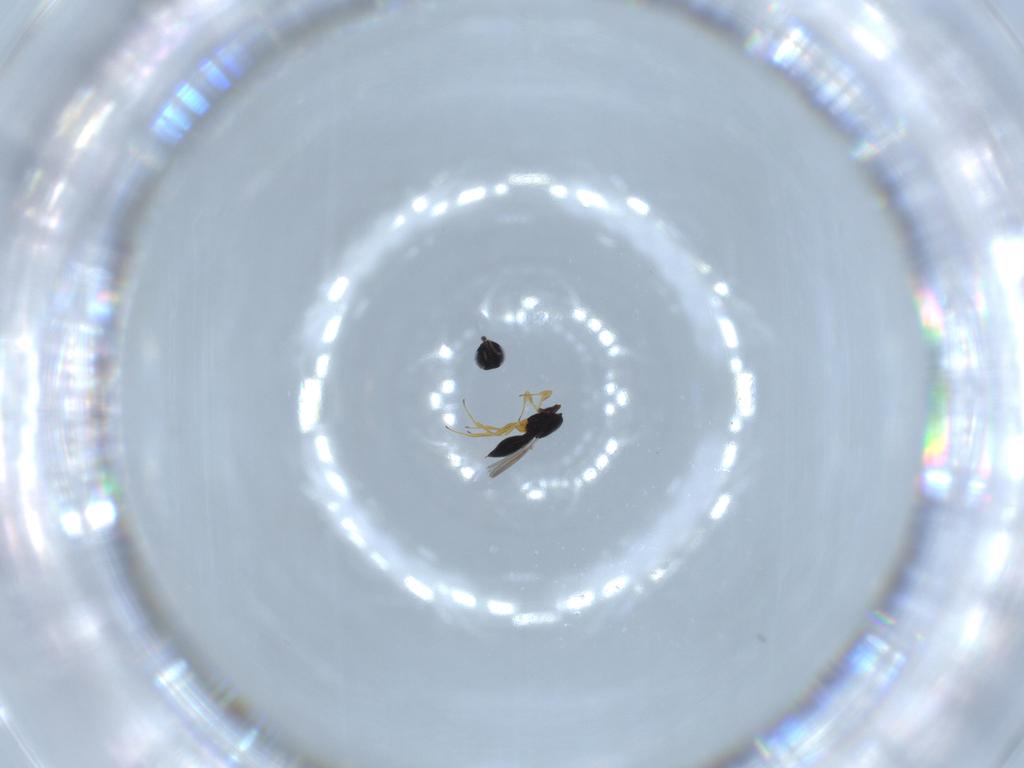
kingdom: Animalia
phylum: Arthropoda
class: Insecta
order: Hymenoptera
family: Scelionidae
